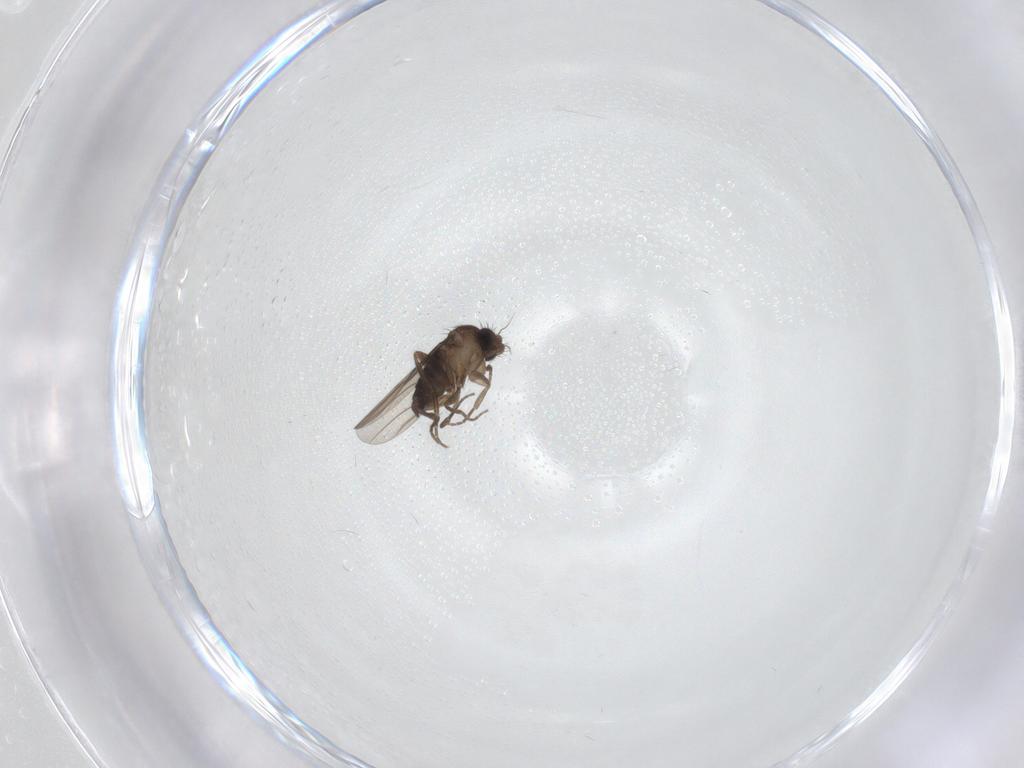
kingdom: Animalia
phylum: Arthropoda
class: Insecta
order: Diptera
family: Phoridae
